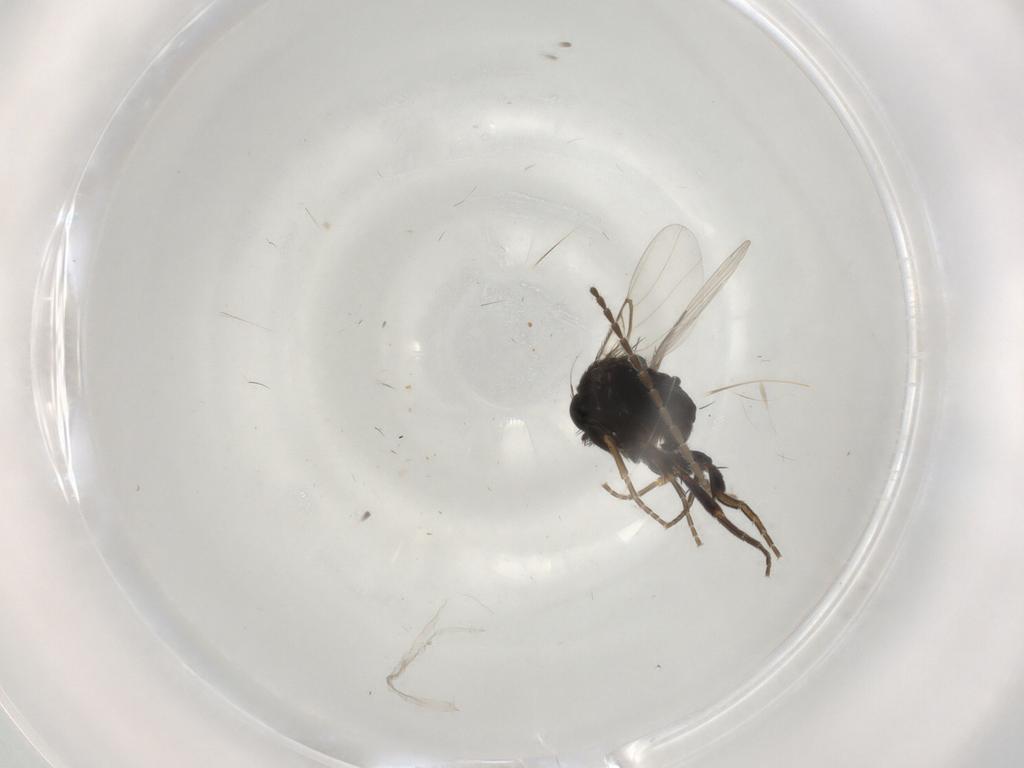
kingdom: Animalia
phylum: Arthropoda
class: Insecta
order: Diptera
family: Phoridae
